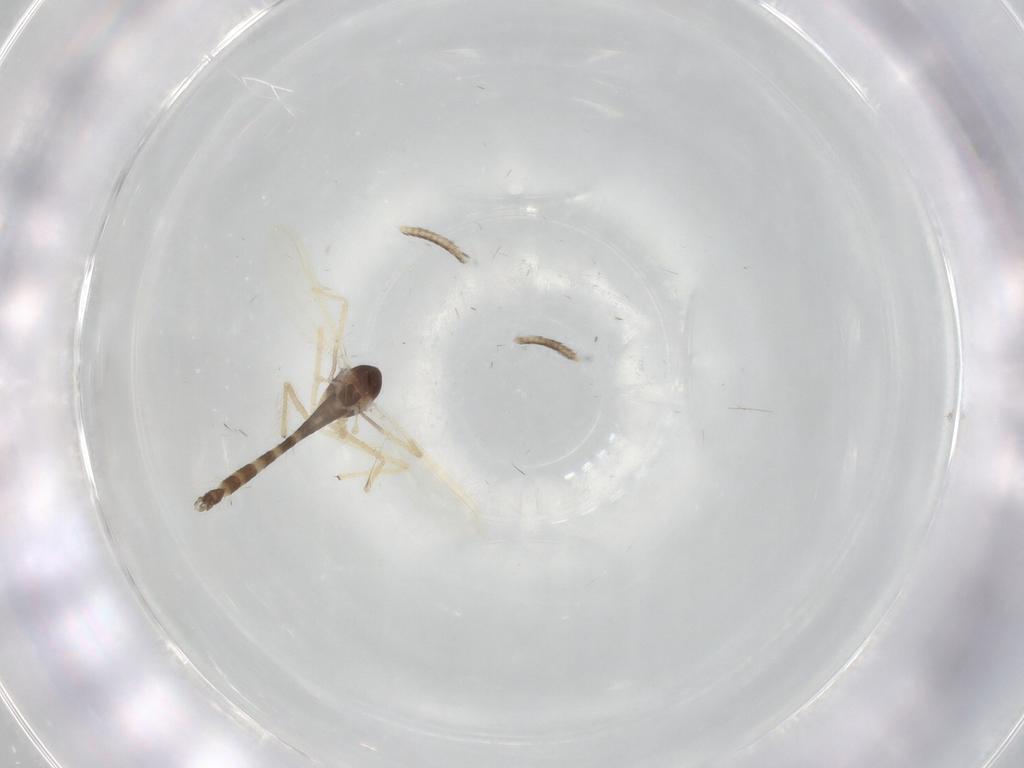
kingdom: Animalia
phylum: Arthropoda
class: Insecta
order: Diptera
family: Chironomidae
